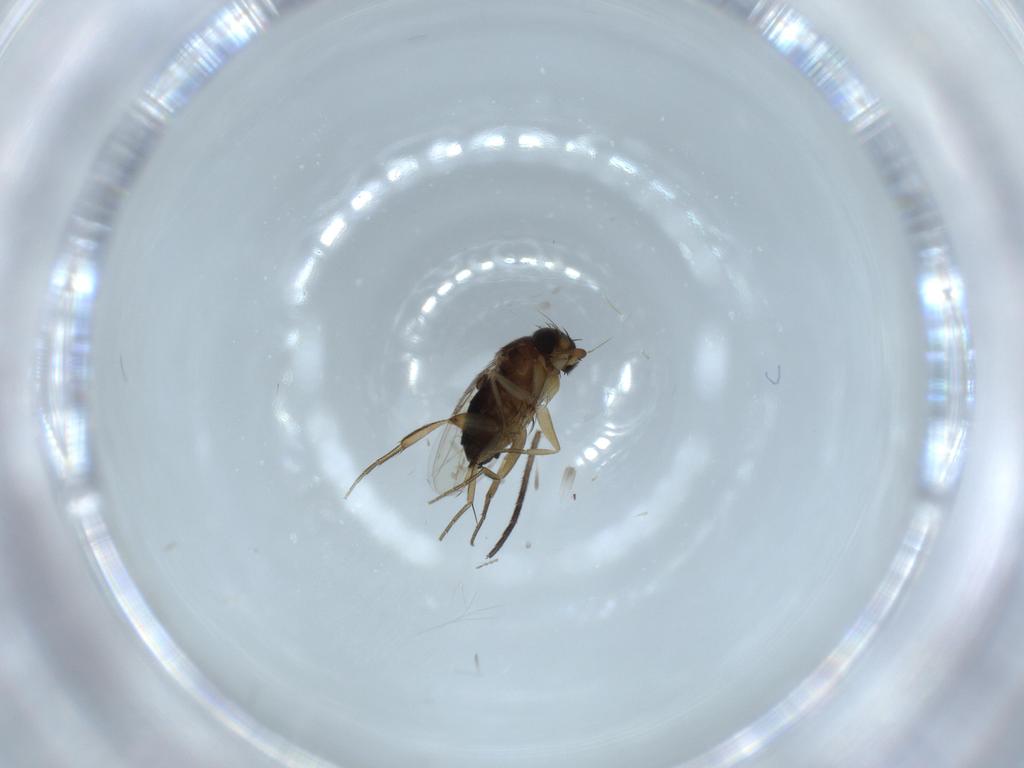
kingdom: Animalia
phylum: Arthropoda
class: Insecta
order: Diptera
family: Sciaridae
